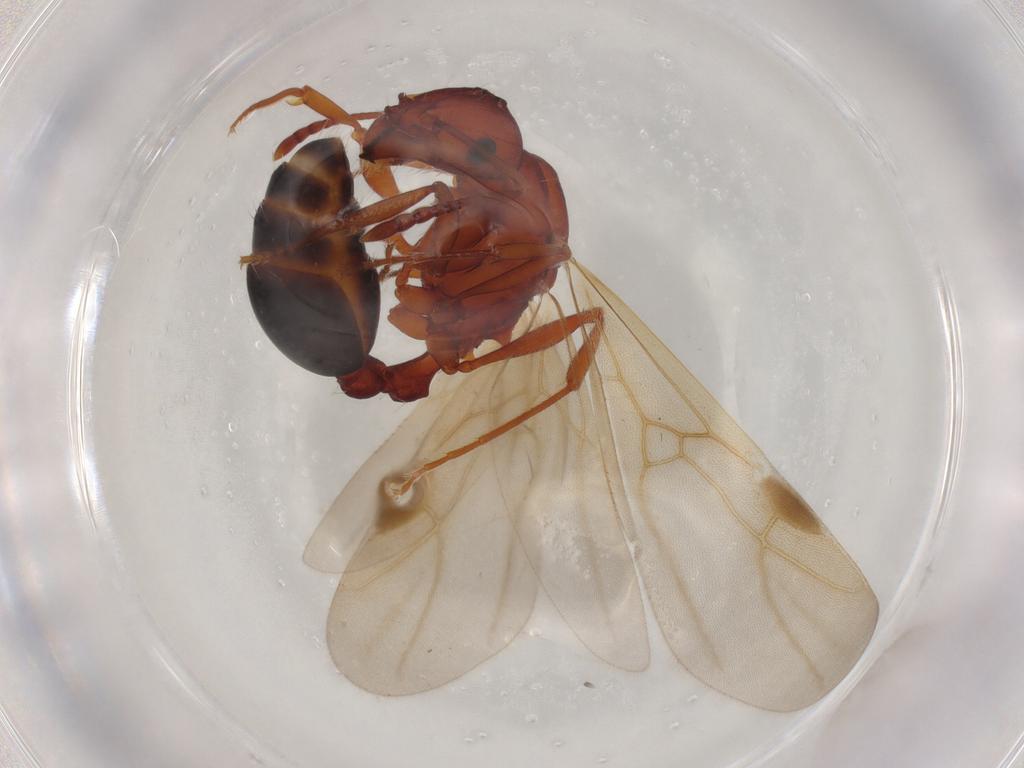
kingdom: Animalia
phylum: Arthropoda
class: Insecta
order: Hymenoptera
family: Formicidae
